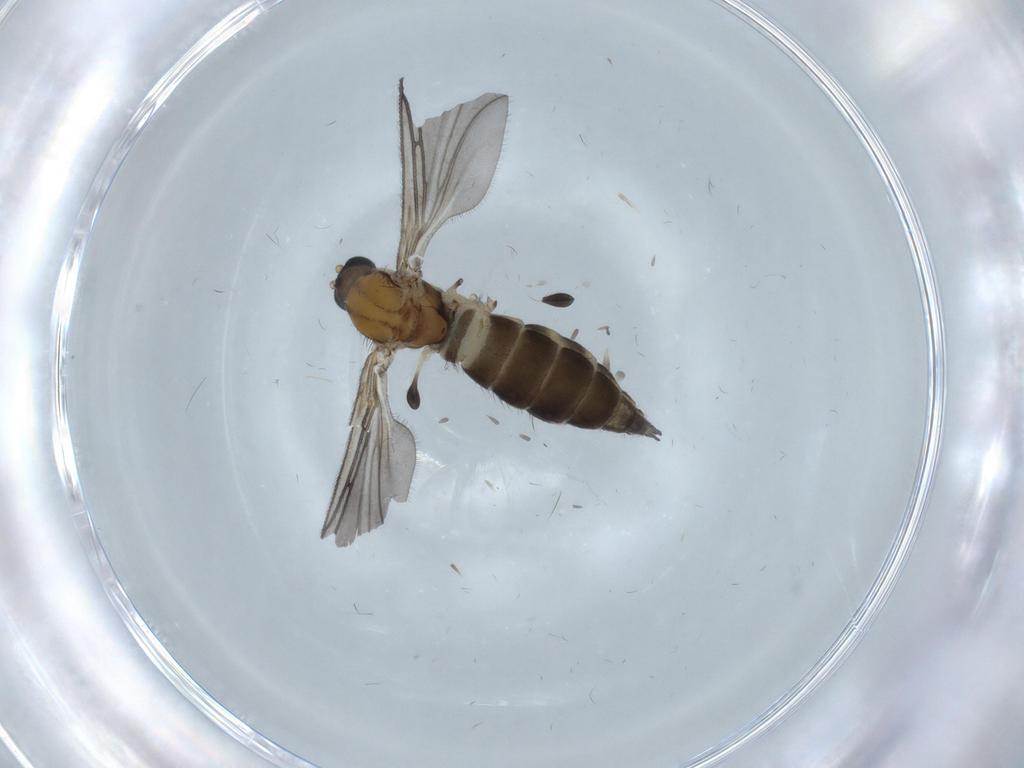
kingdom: Animalia
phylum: Arthropoda
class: Insecta
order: Diptera
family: Sciaridae
